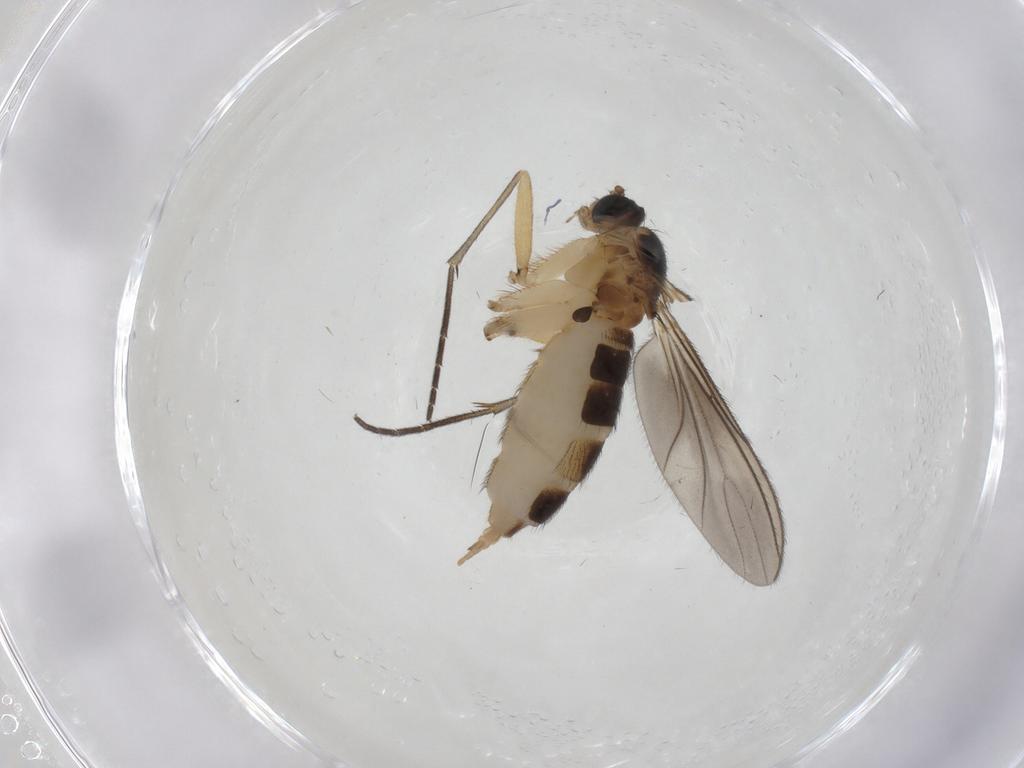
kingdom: Animalia
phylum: Arthropoda
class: Insecta
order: Diptera
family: Sciaridae
